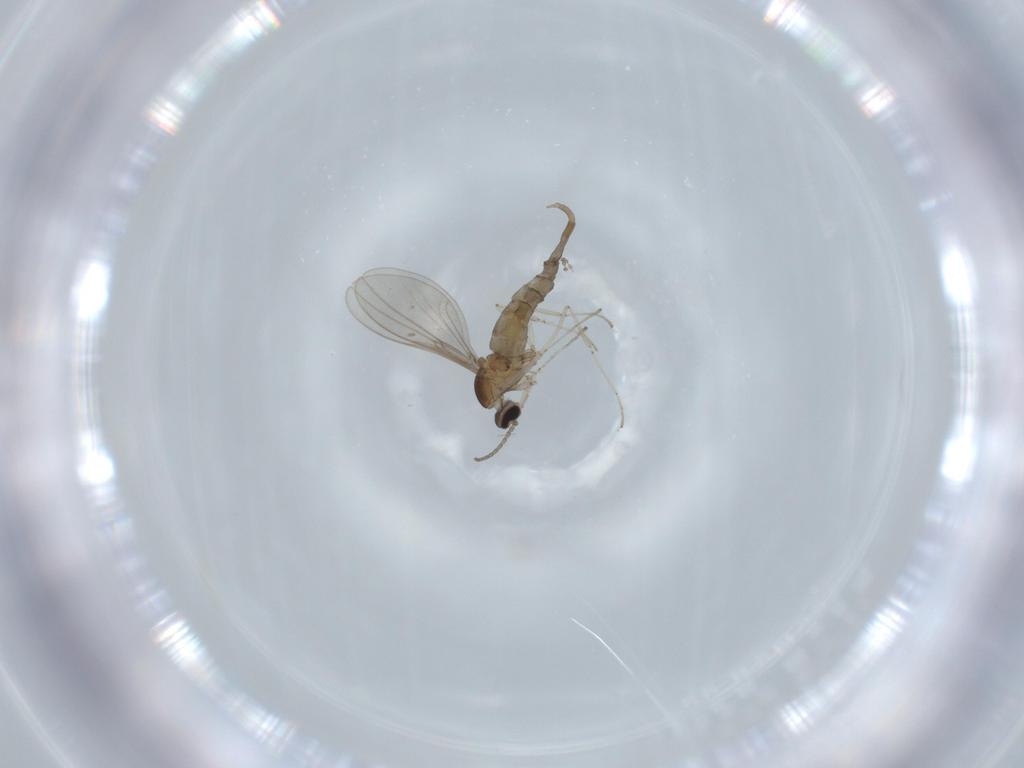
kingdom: Animalia
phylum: Arthropoda
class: Insecta
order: Diptera
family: Cecidomyiidae
